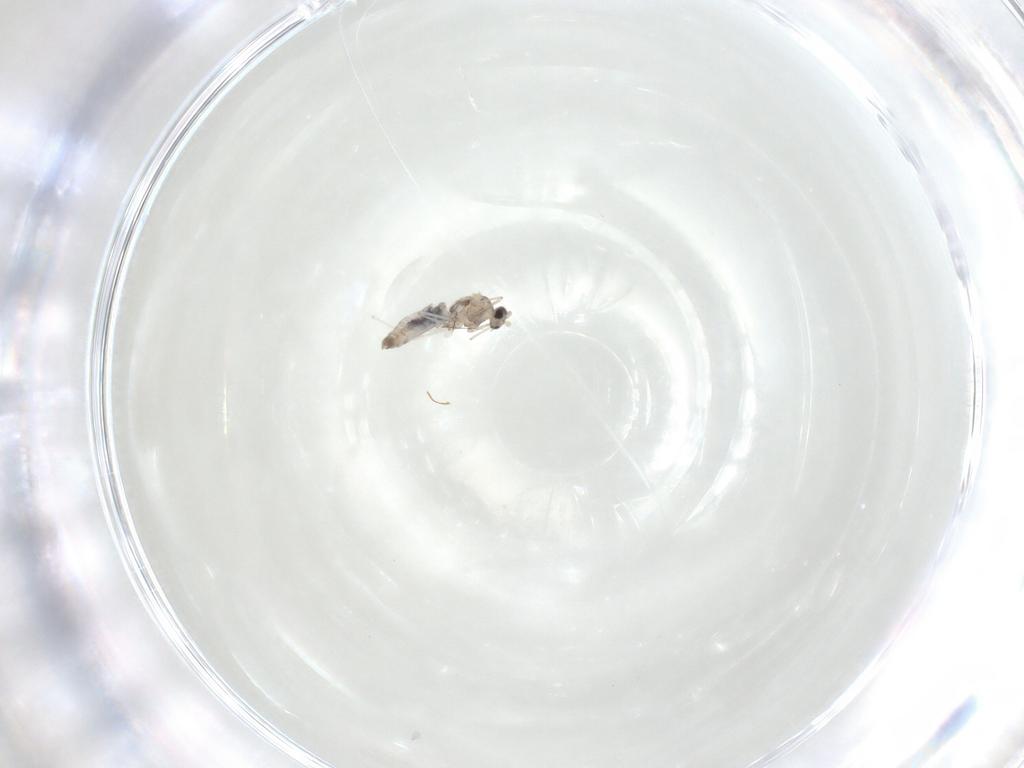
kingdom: Animalia
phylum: Arthropoda
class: Insecta
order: Diptera
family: Cecidomyiidae
